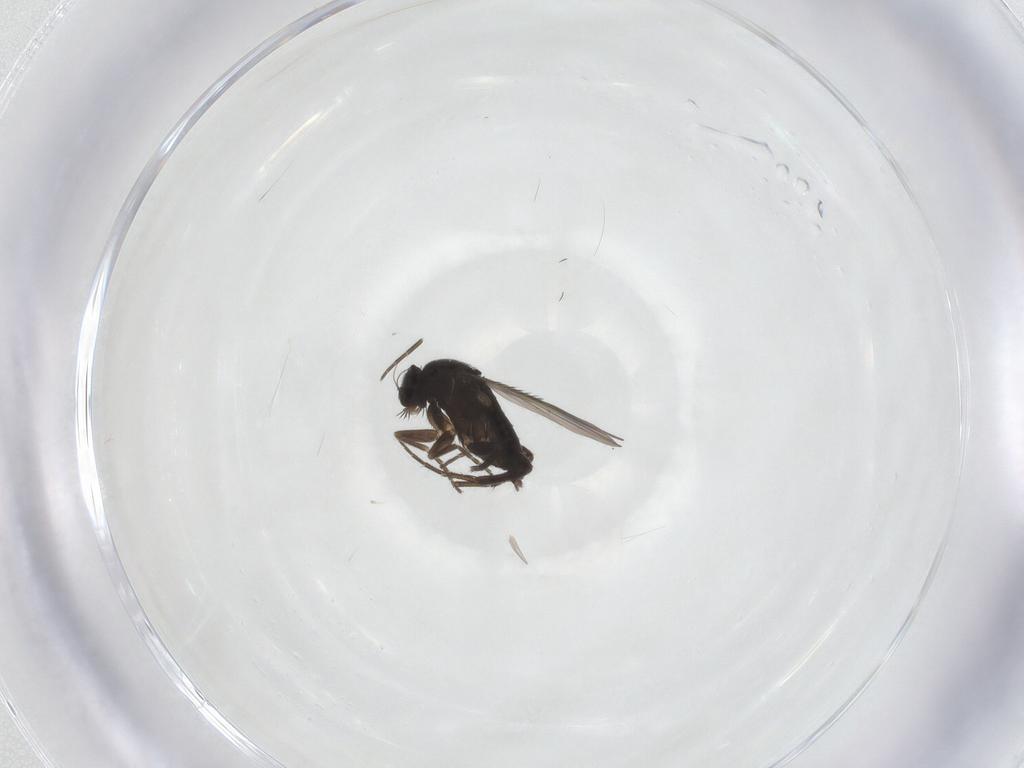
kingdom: Animalia
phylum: Arthropoda
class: Insecta
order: Diptera
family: Phoridae
